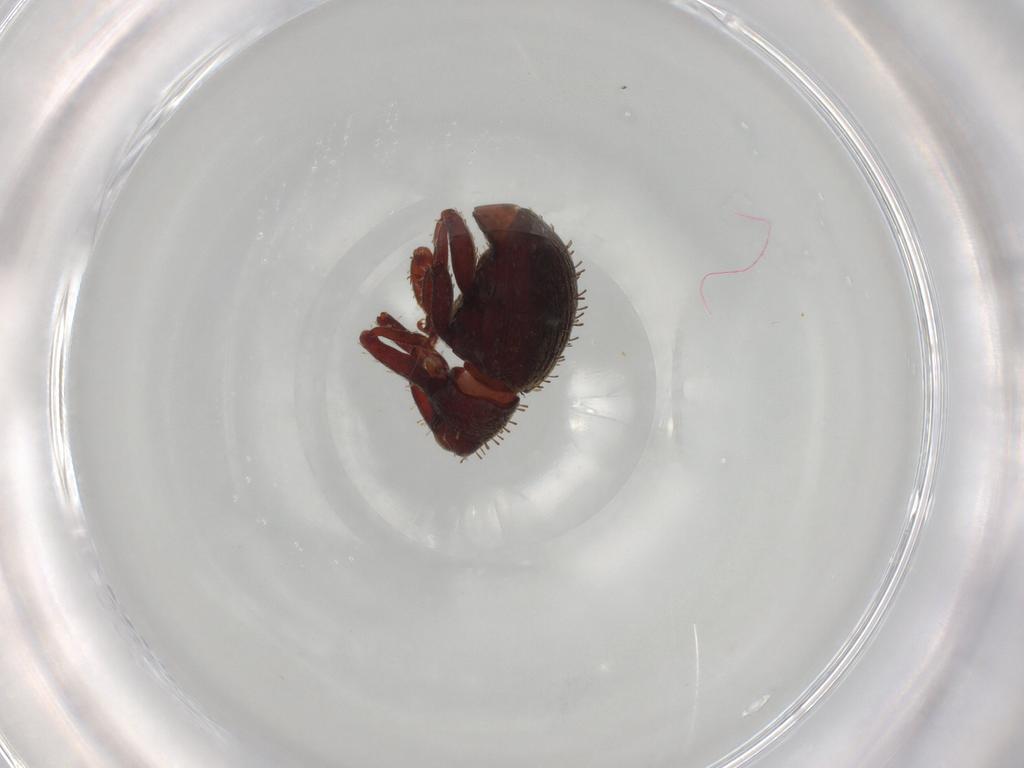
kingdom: Animalia
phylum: Arthropoda
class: Insecta
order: Coleoptera
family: Curculionidae
